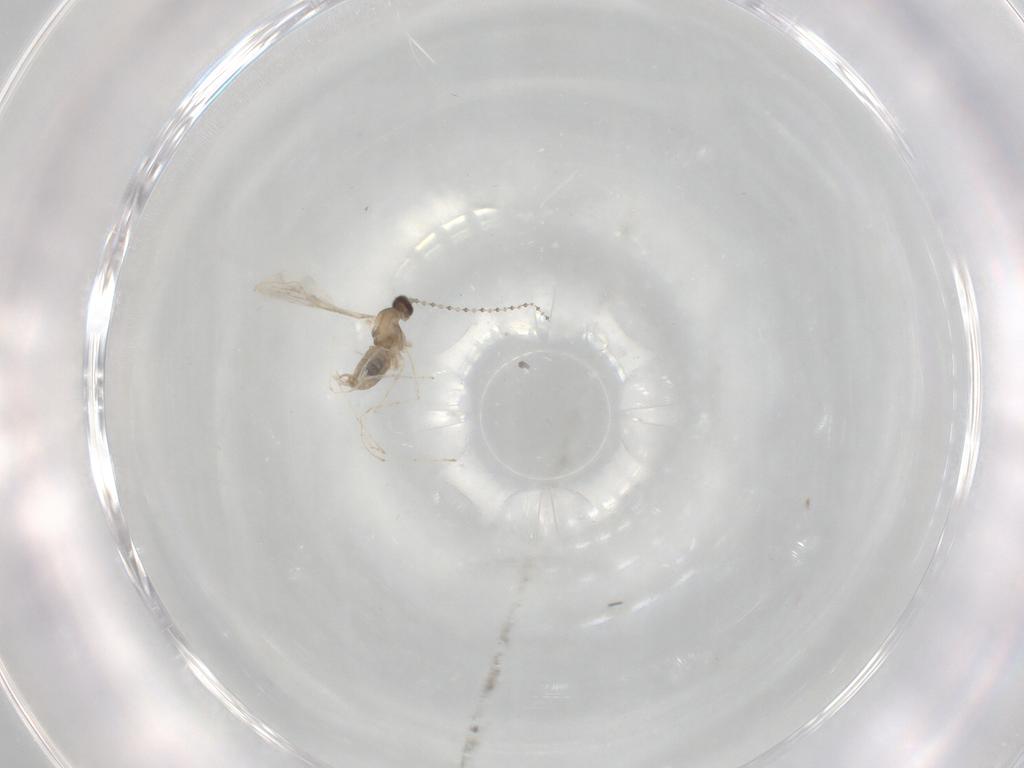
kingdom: Animalia
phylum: Arthropoda
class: Insecta
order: Diptera
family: Cecidomyiidae
